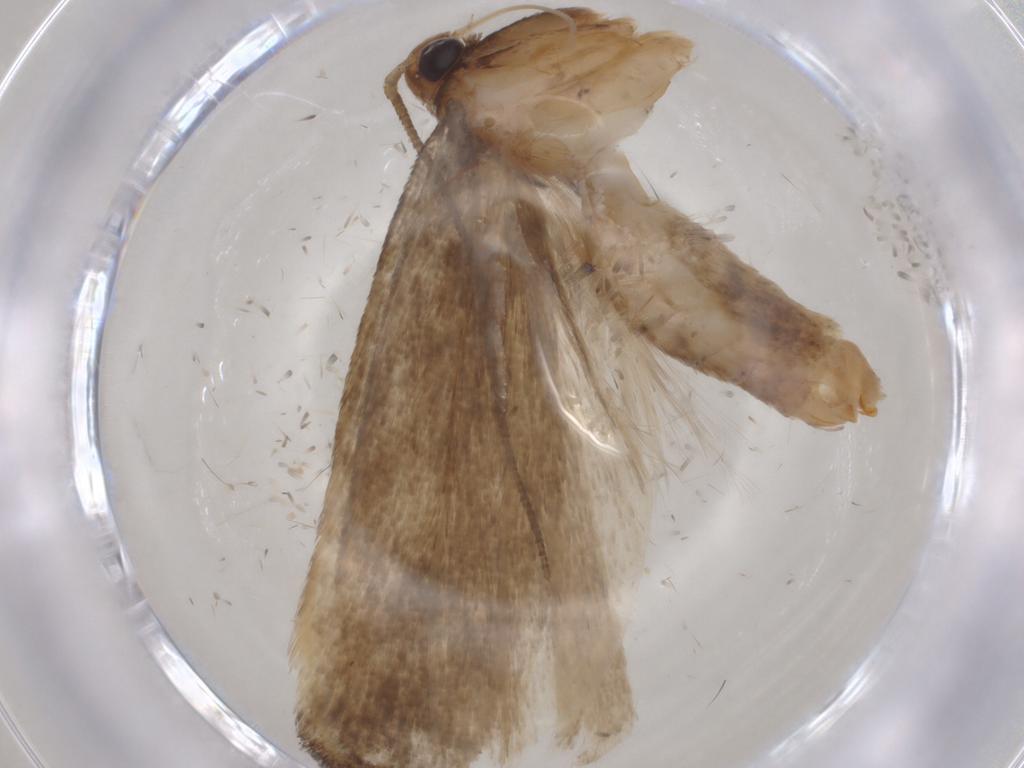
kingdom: Animalia
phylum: Arthropoda
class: Insecta
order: Lepidoptera
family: Gelechiidae
